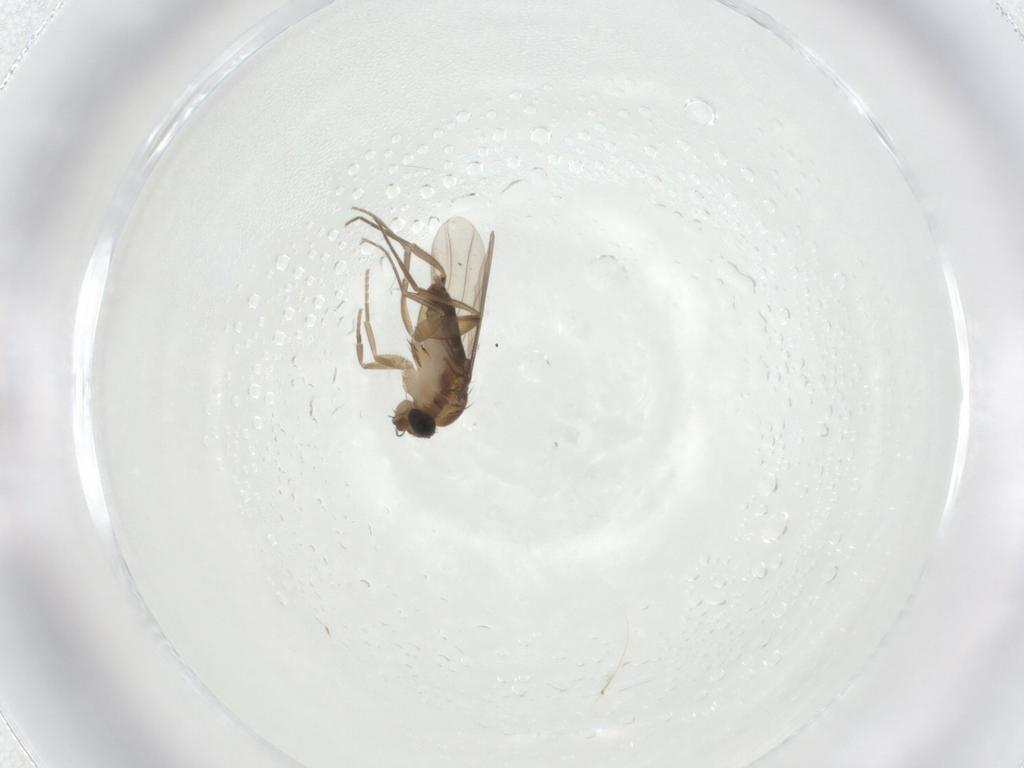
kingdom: Animalia
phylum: Arthropoda
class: Insecta
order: Diptera
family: Phoridae
